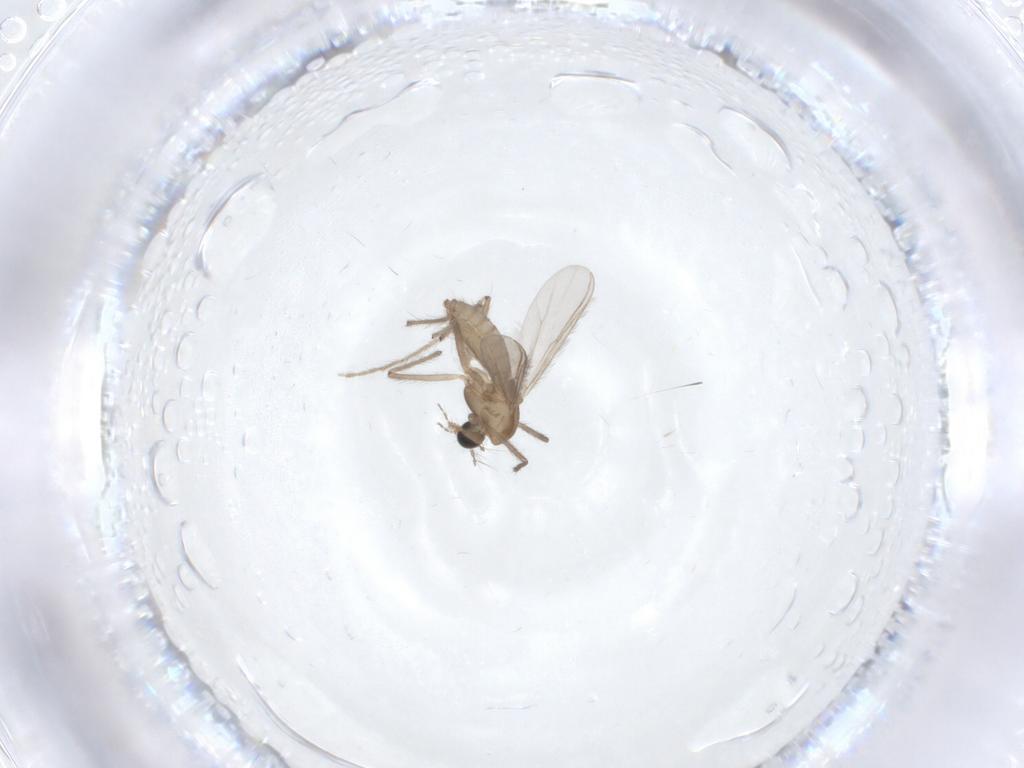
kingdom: Animalia
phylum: Arthropoda
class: Insecta
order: Diptera
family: Chironomidae
